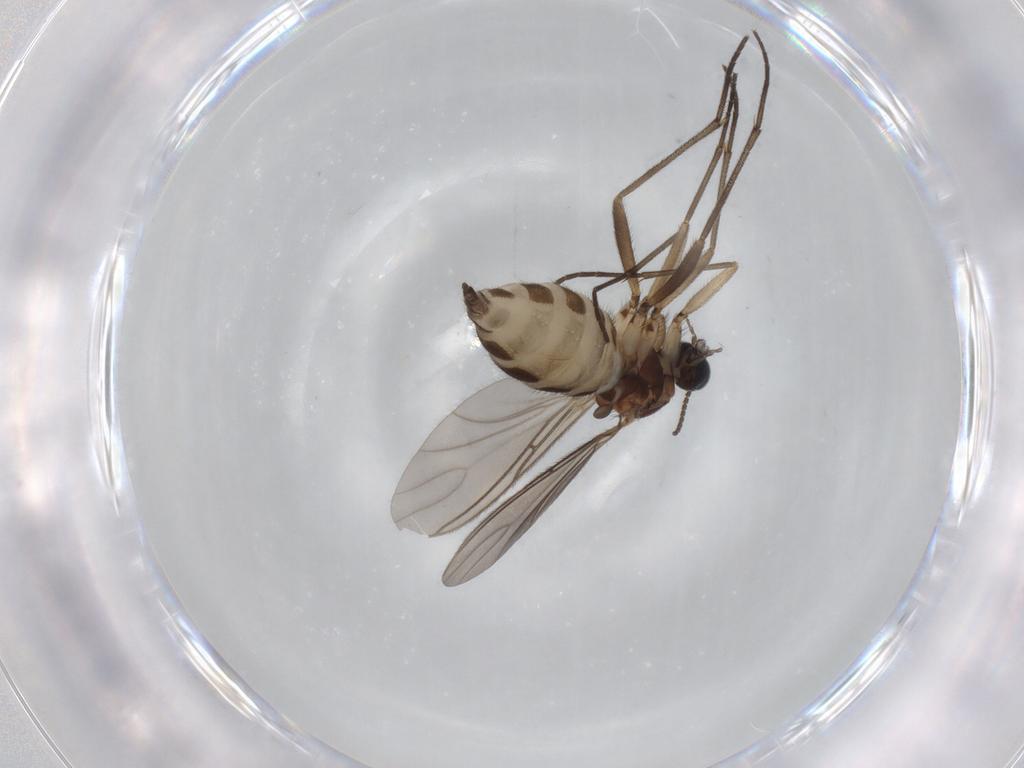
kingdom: Animalia
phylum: Arthropoda
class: Insecta
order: Diptera
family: Sciaridae
